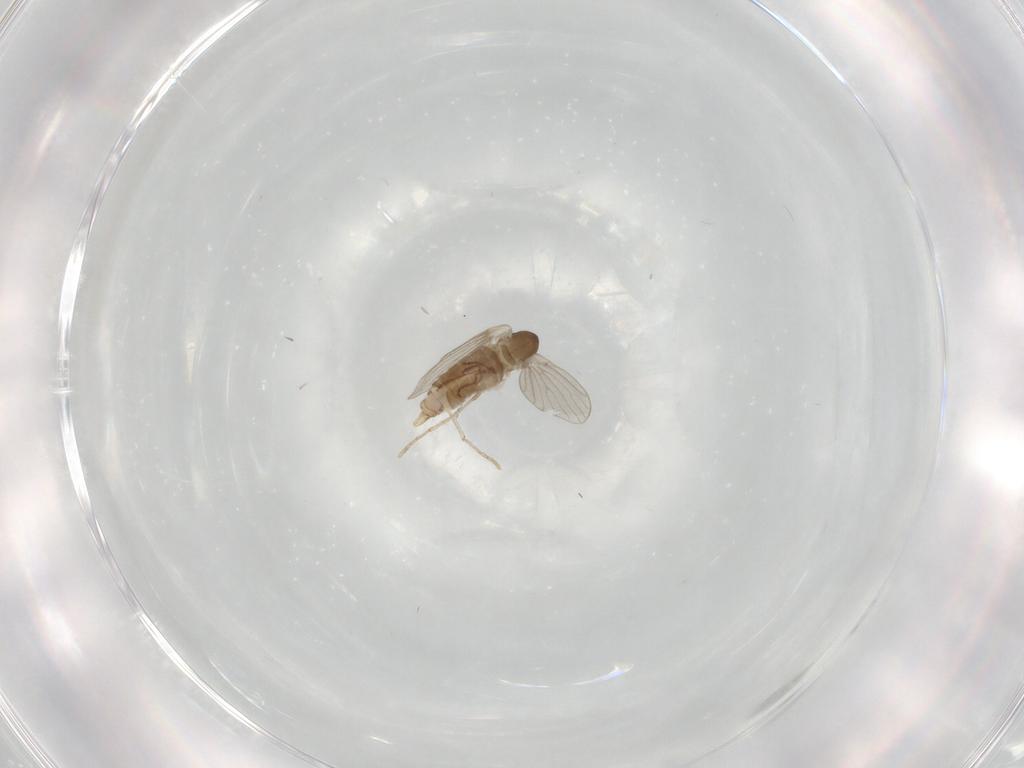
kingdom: Animalia
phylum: Arthropoda
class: Insecta
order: Diptera
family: Psychodidae
